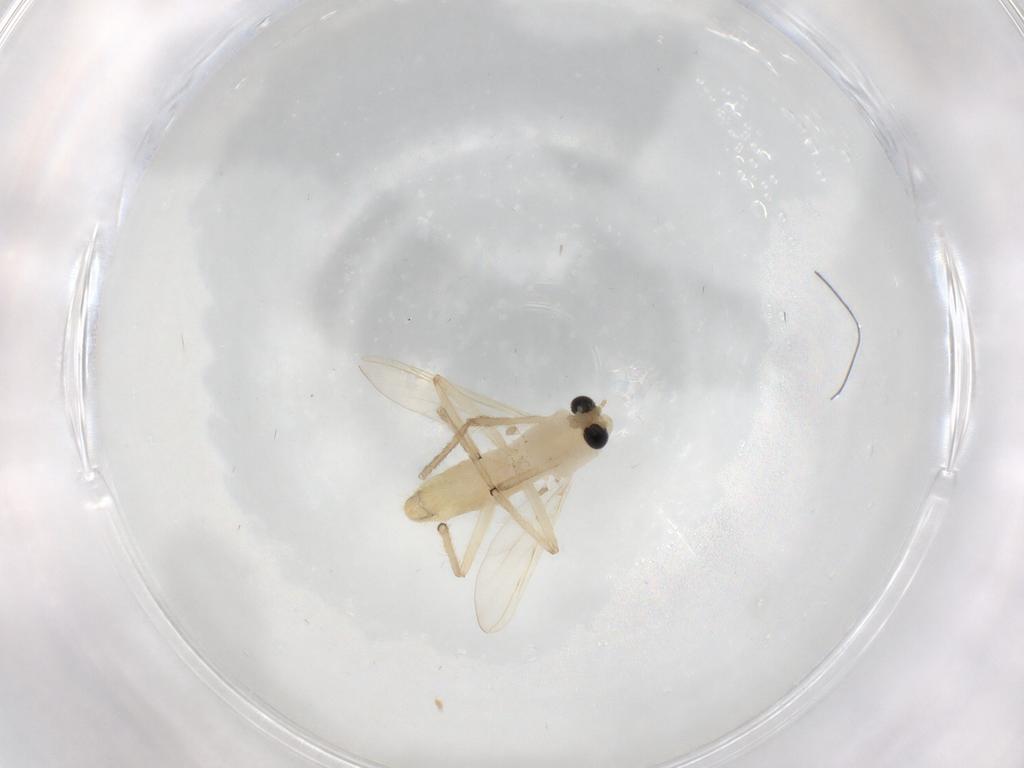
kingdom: Animalia
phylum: Arthropoda
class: Insecta
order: Diptera
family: Chironomidae
